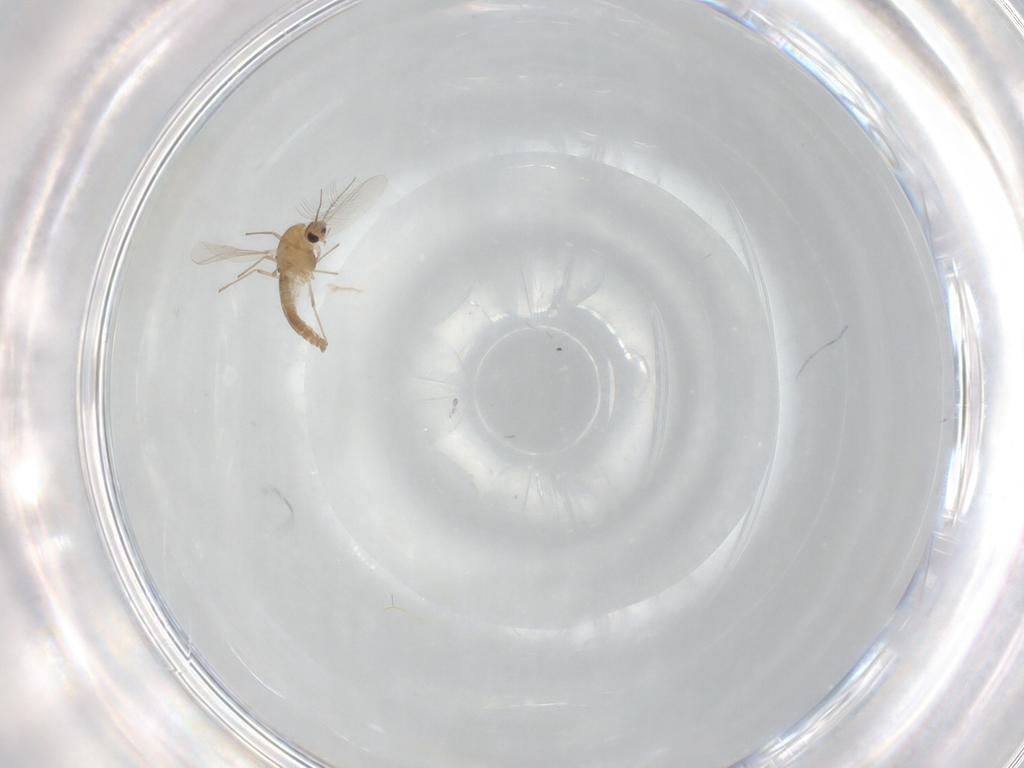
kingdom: Animalia
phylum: Arthropoda
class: Insecta
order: Diptera
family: Chironomidae
